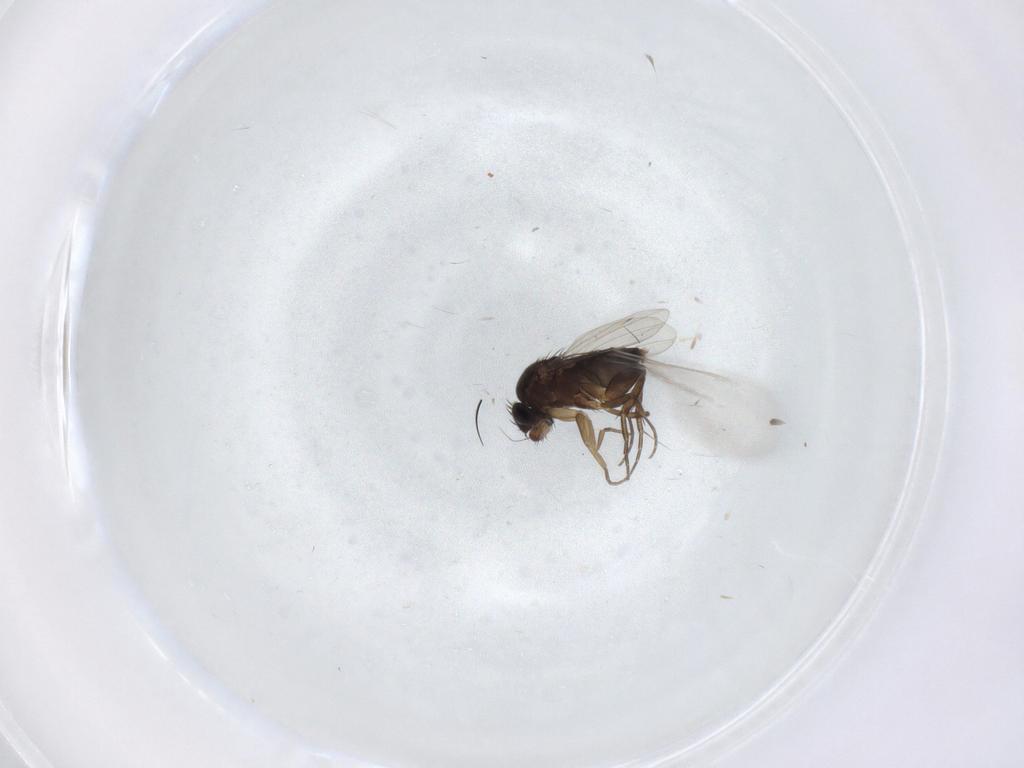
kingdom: Animalia
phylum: Arthropoda
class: Insecta
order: Diptera
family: Phoridae
